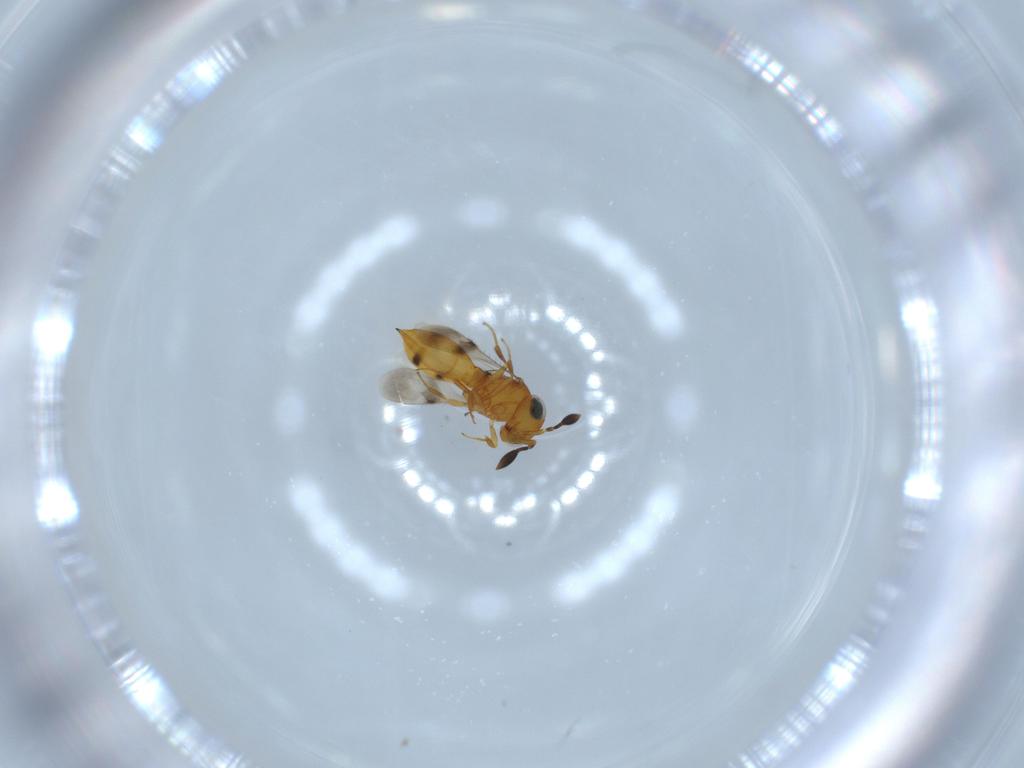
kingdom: Animalia
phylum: Arthropoda
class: Insecta
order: Hymenoptera
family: Scelionidae
